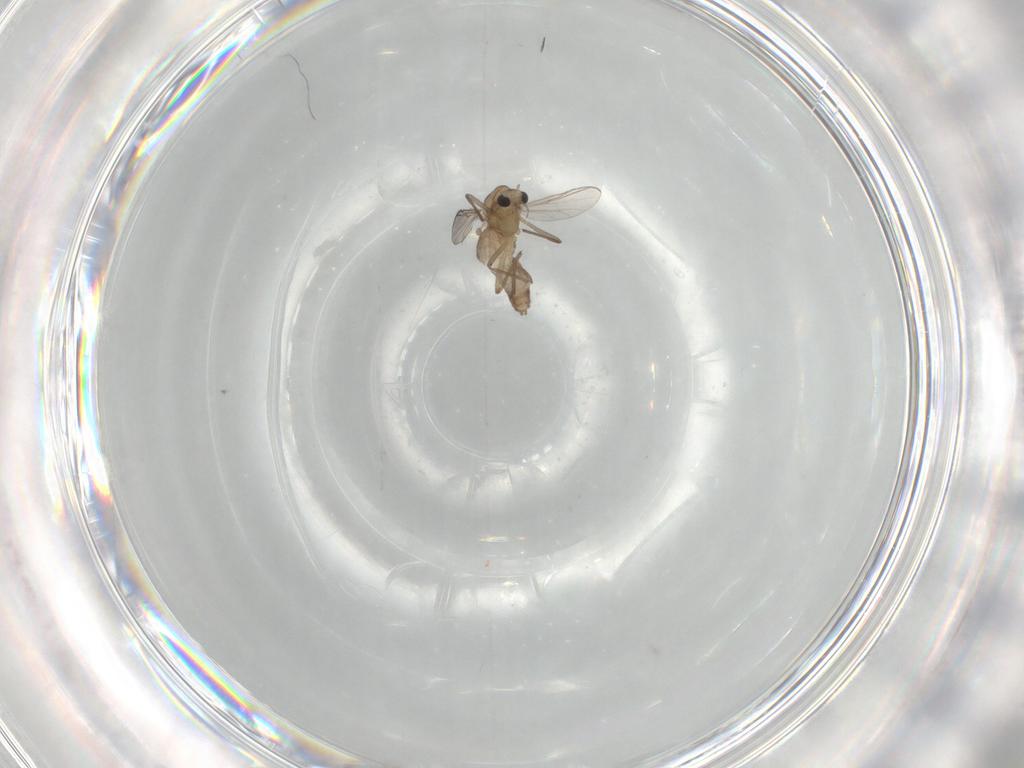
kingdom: Animalia
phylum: Arthropoda
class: Insecta
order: Diptera
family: Chironomidae
